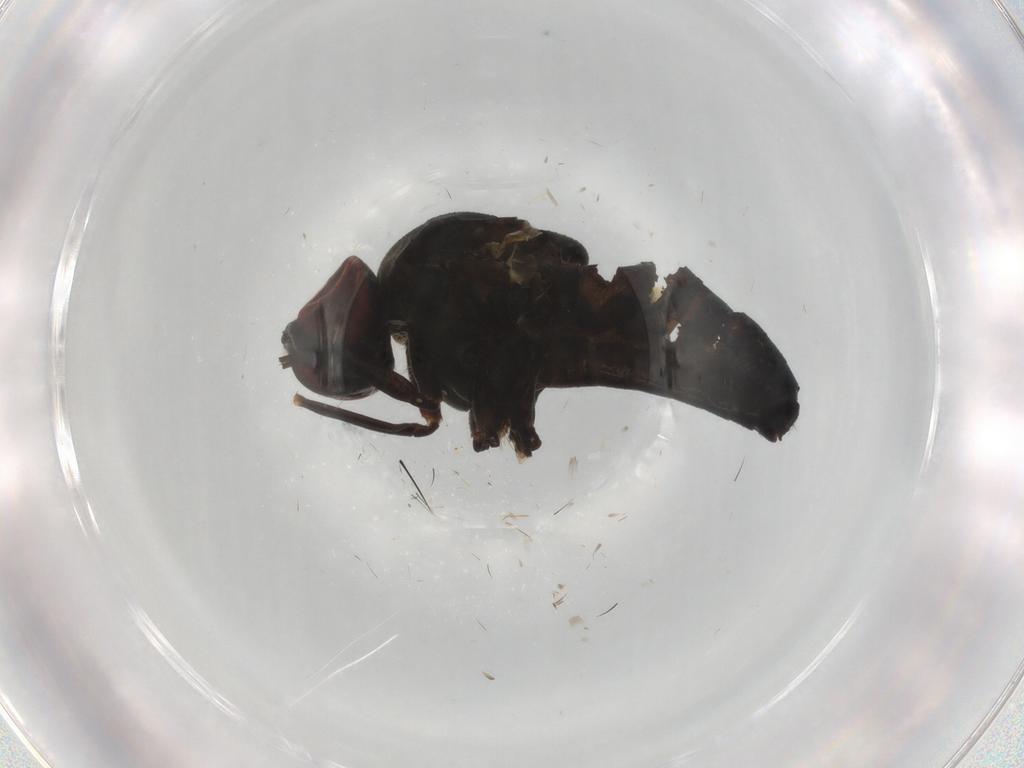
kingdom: Animalia
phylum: Arthropoda
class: Insecta
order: Diptera
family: Bombyliidae
